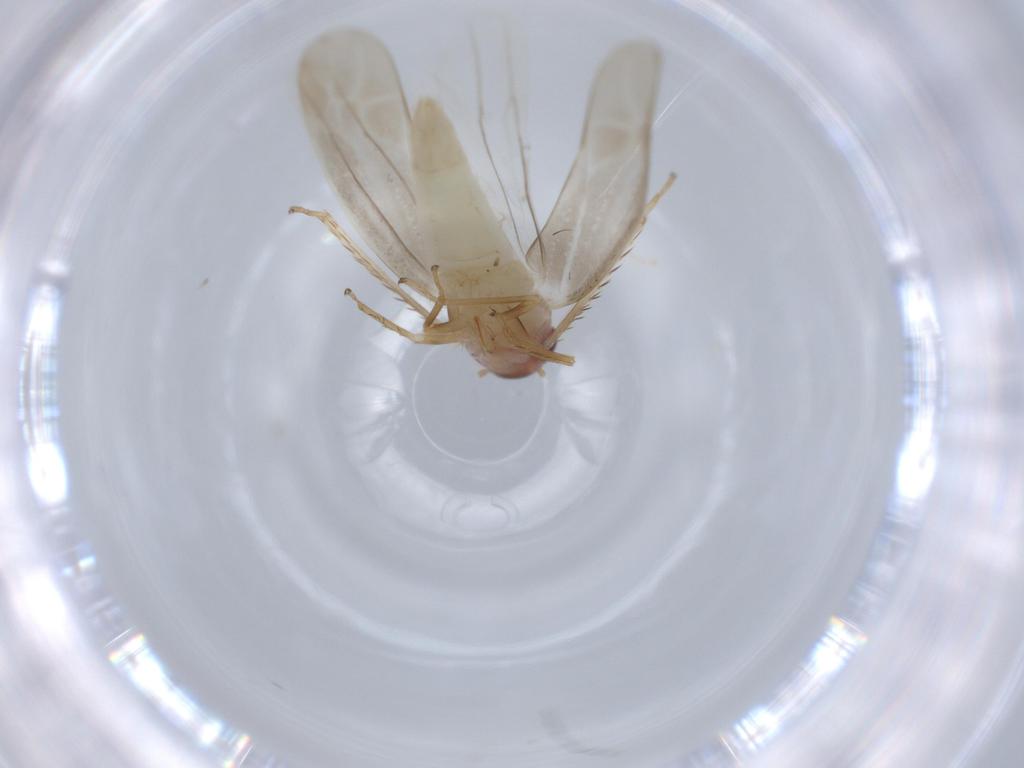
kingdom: Animalia
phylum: Arthropoda
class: Insecta
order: Hemiptera
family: Cicadellidae
